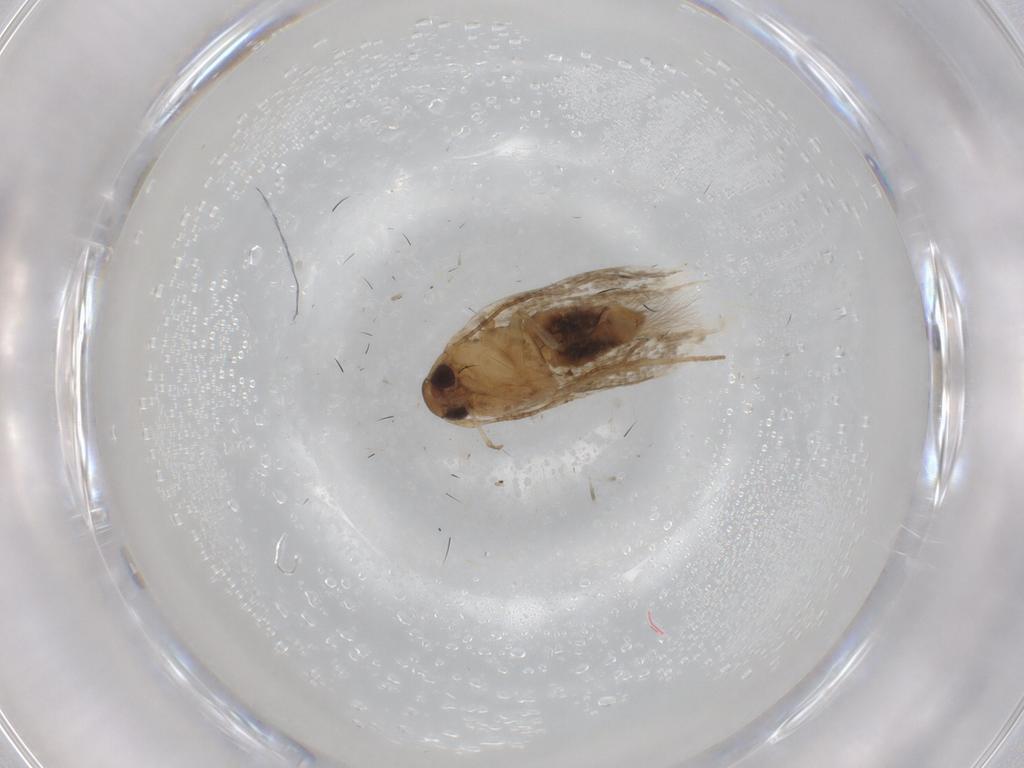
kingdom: Animalia
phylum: Arthropoda
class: Insecta
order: Lepidoptera
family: Cosmopterigidae
